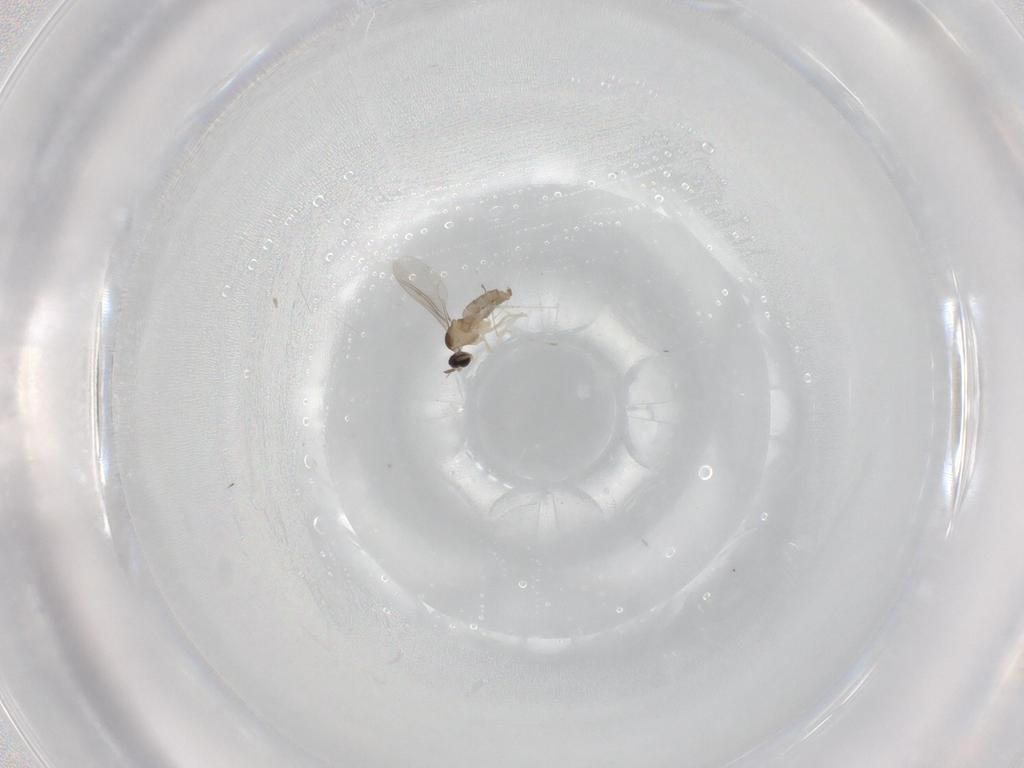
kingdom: Animalia
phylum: Arthropoda
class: Insecta
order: Diptera
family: Cecidomyiidae
